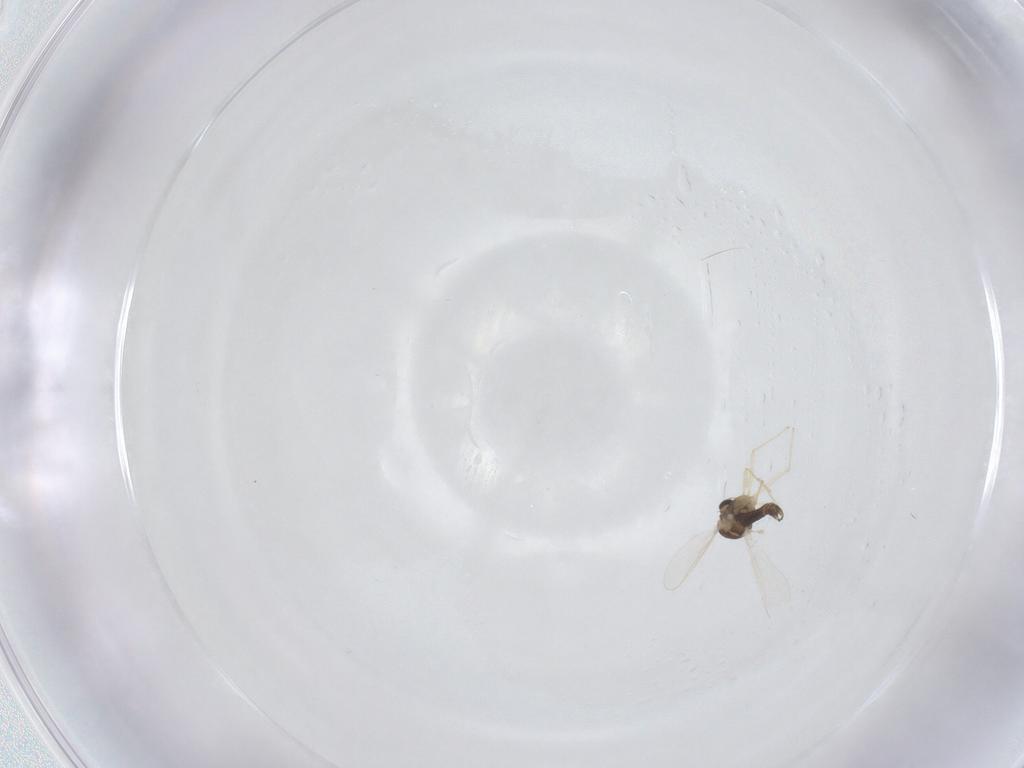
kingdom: Animalia
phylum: Arthropoda
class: Insecta
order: Diptera
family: Chironomidae
